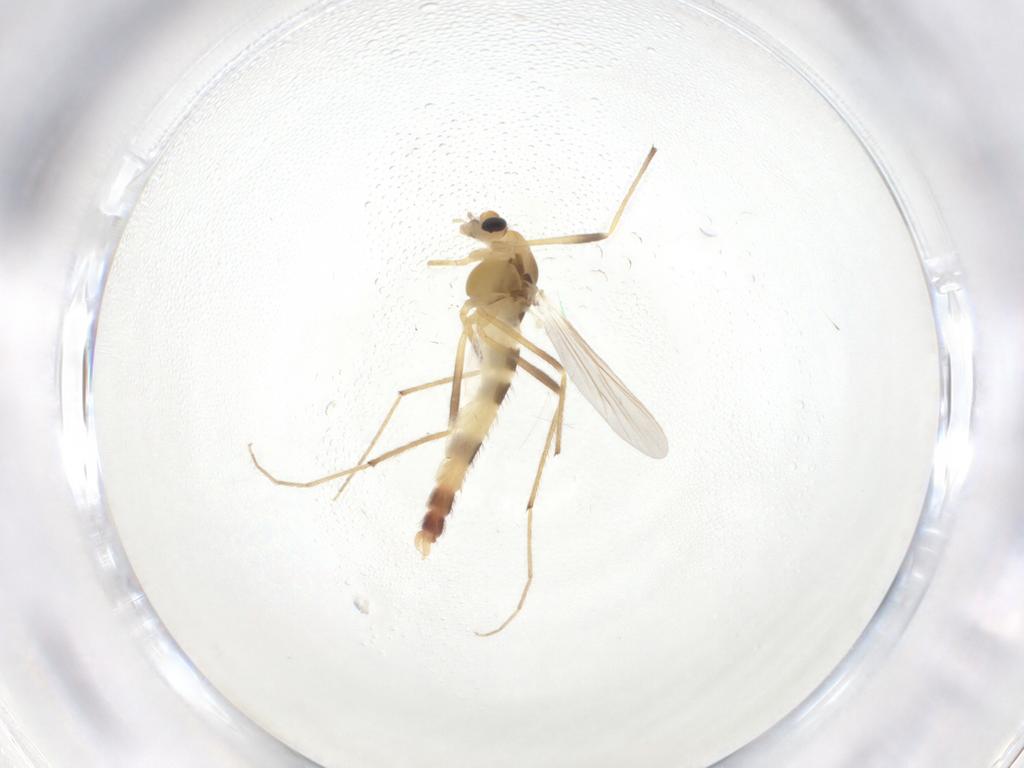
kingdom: Animalia
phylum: Arthropoda
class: Insecta
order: Diptera
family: Chironomidae
